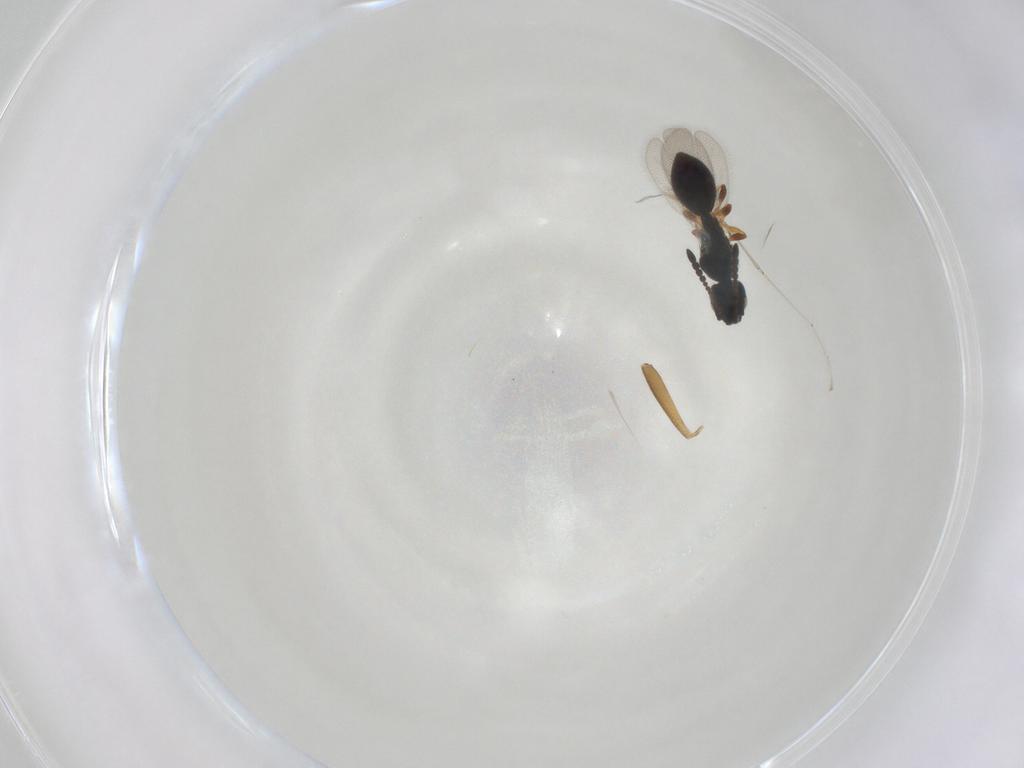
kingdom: Animalia
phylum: Arthropoda
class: Insecta
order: Hymenoptera
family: Diapriidae
